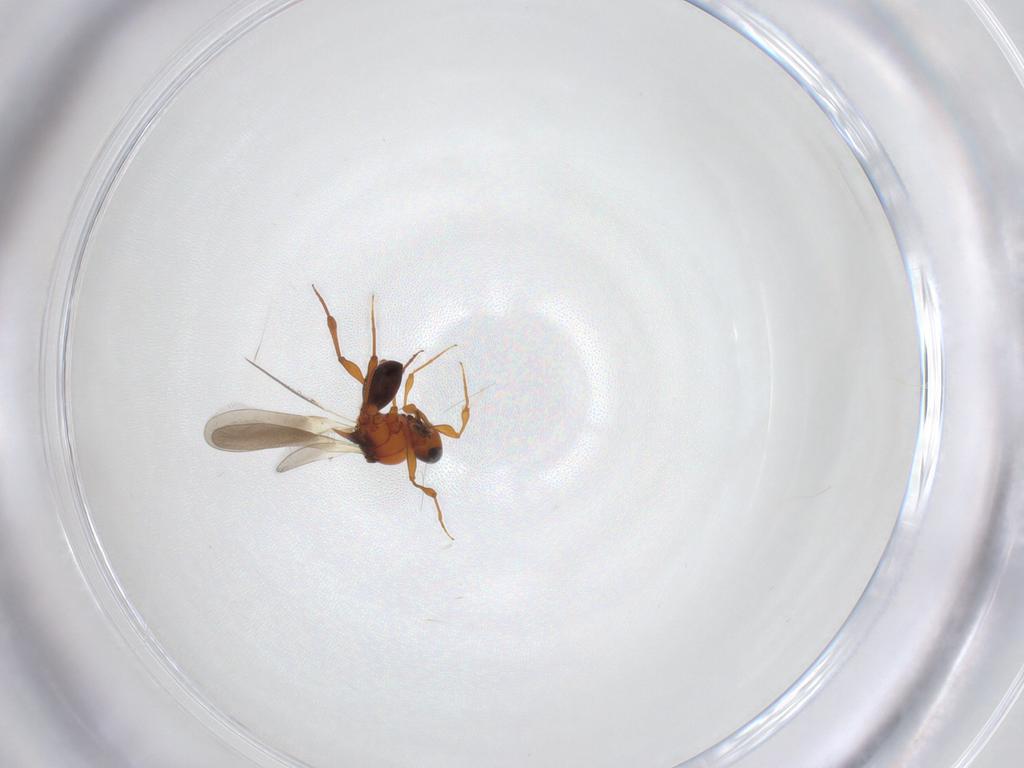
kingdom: Animalia
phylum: Arthropoda
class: Insecta
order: Hymenoptera
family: Platygastridae
